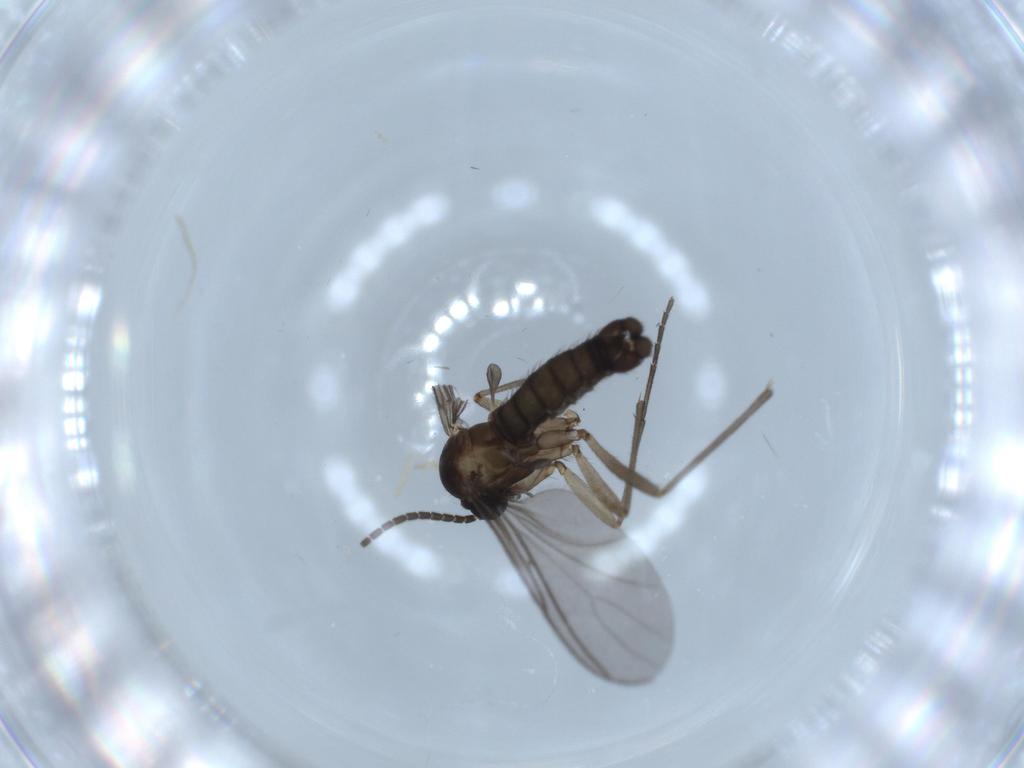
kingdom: Animalia
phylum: Arthropoda
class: Insecta
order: Diptera
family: Sciaridae
